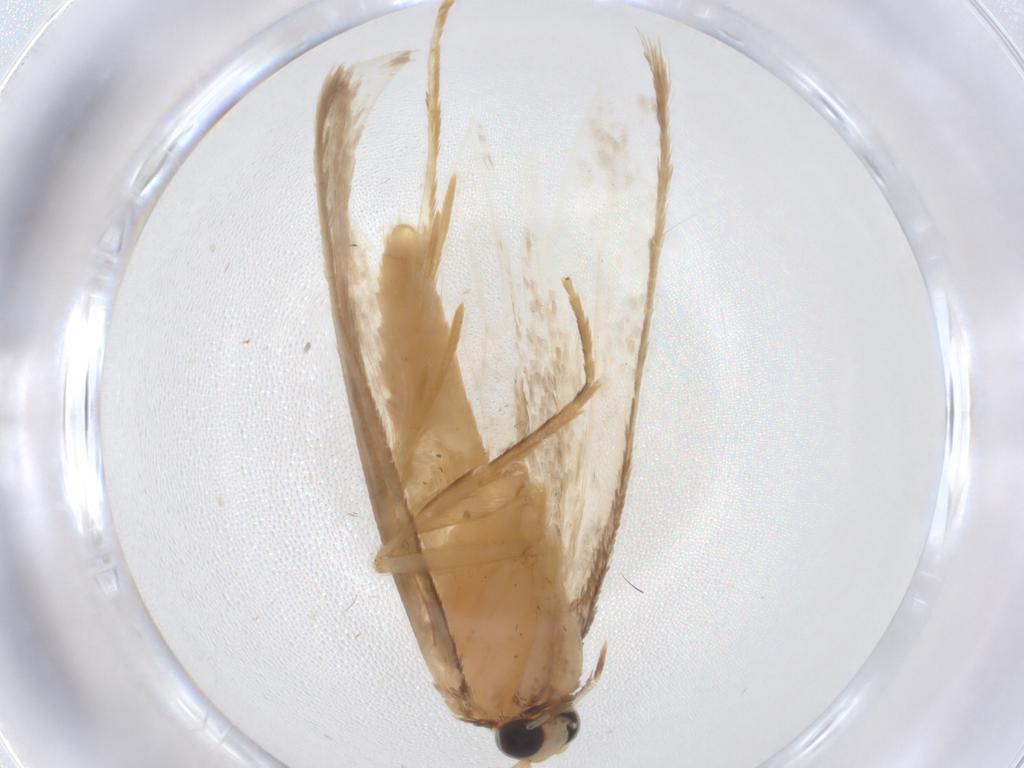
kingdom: Animalia
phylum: Arthropoda
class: Insecta
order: Lepidoptera
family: Tineidae
